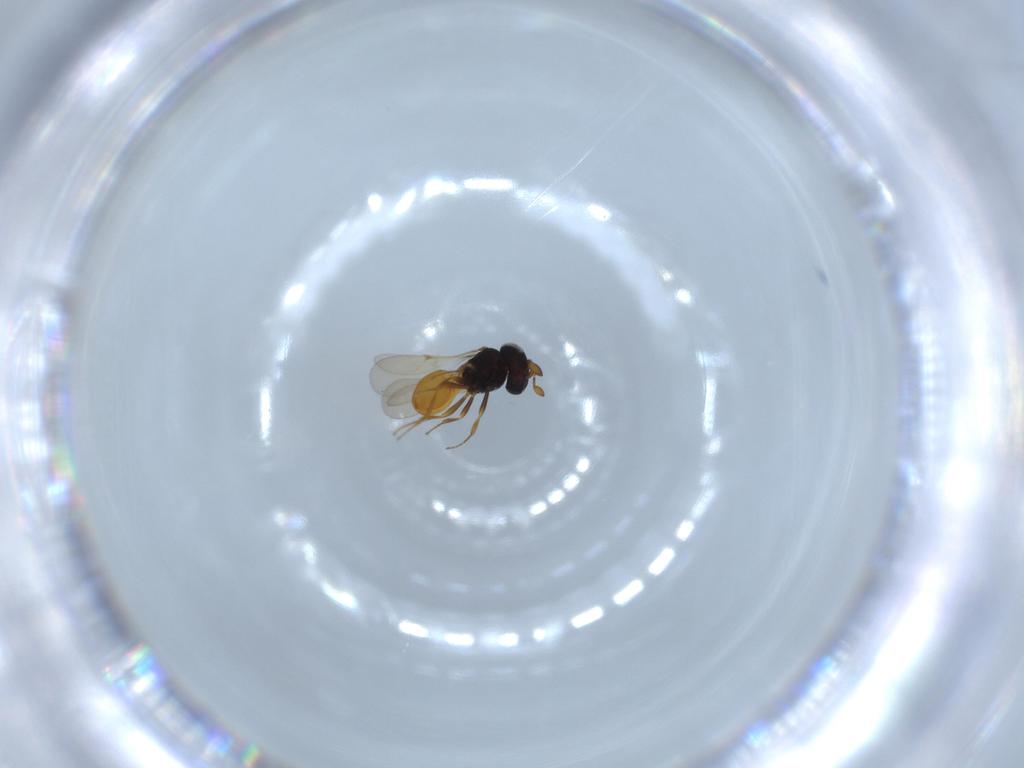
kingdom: Animalia
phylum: Arthropoda
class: Insecta
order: Hymenoptera
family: Scelionidae
